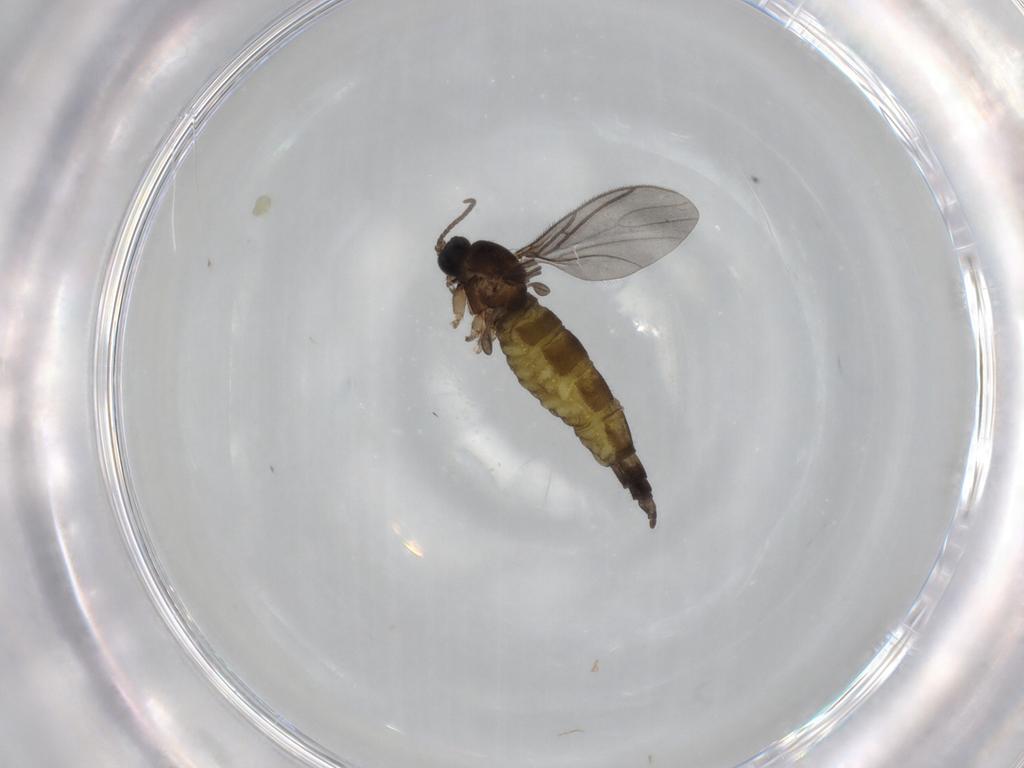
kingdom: Animalia
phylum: Arthropoda
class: Insecta
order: Diptera
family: Sciaridae
